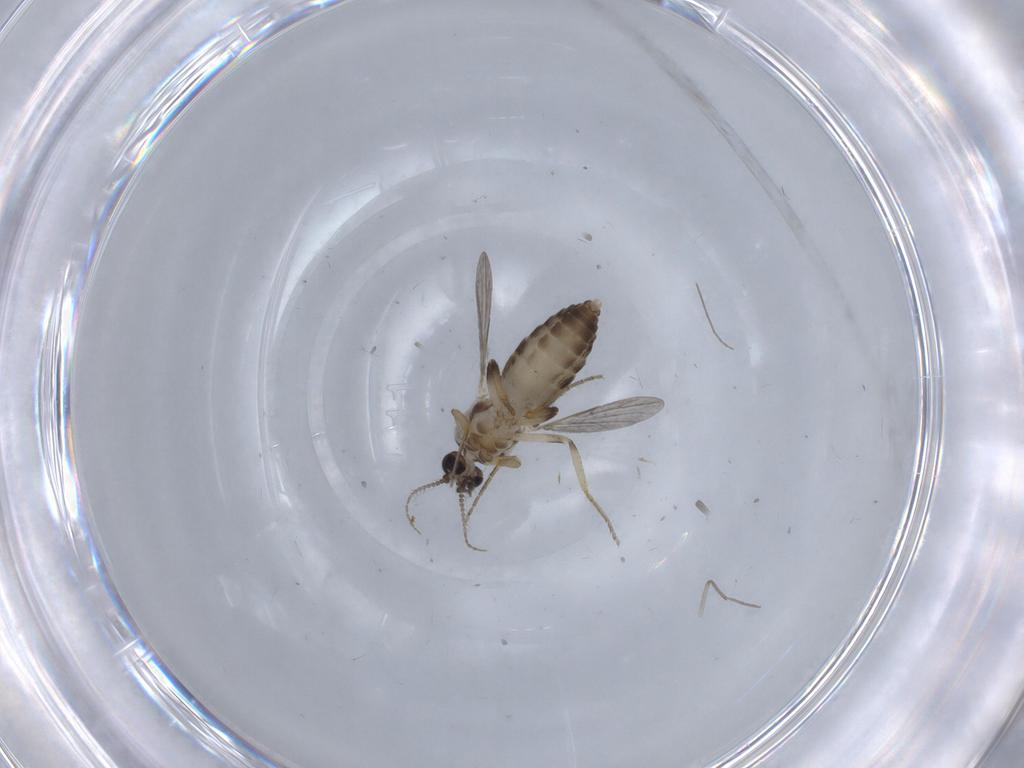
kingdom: Animalia
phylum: Arthropoda
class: Insecta
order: Diptera
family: Ceratopogonidae
